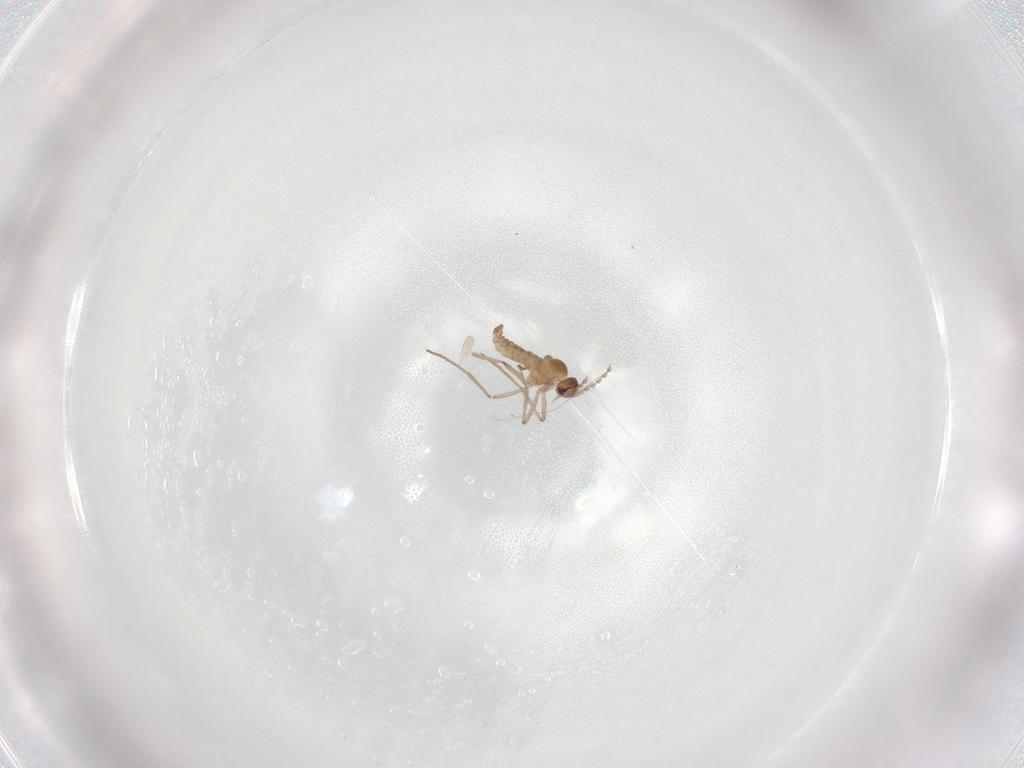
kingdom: Animalia
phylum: Arthropoda
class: Insecta
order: Diptera
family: Cecidomyiidae
